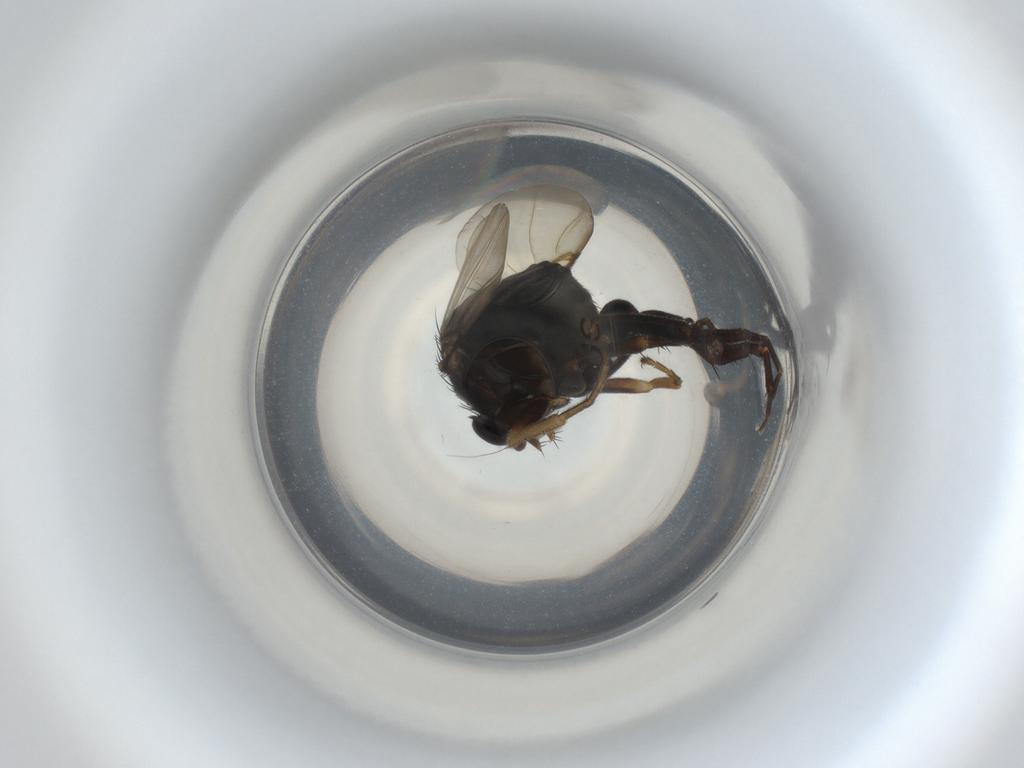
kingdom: Animalia
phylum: Arthropoda
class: Insecta
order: Diptera
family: Phoridae
